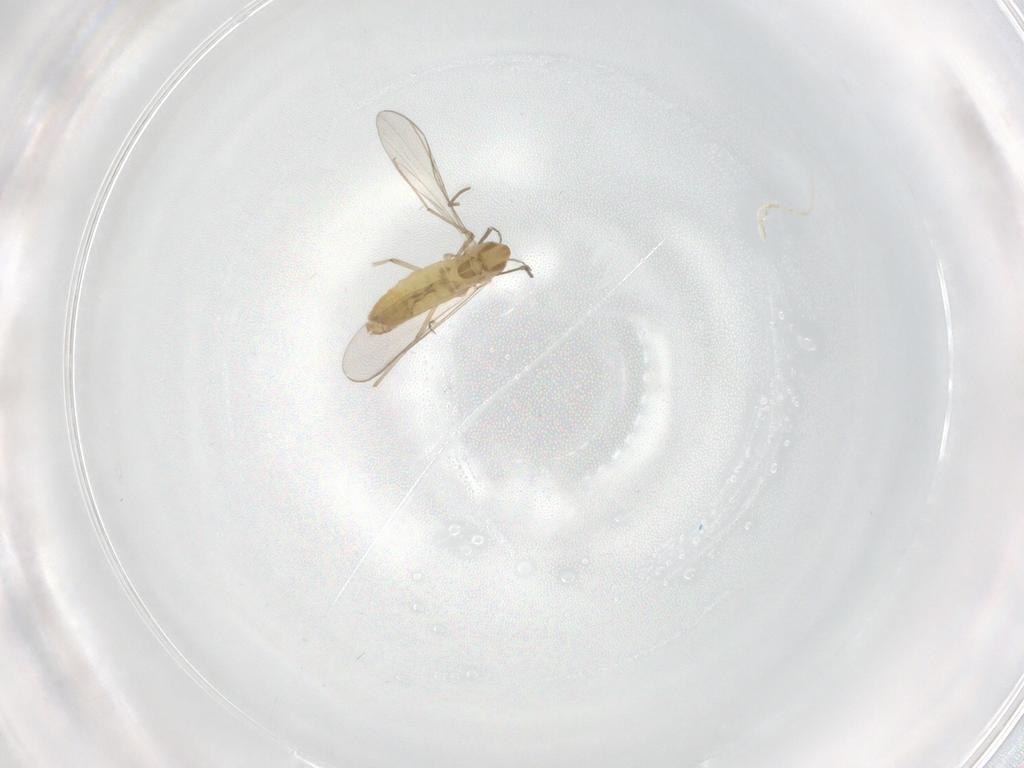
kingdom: Animalia
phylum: Arthropoda
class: Insecta
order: Diptera
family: Chironomidae
